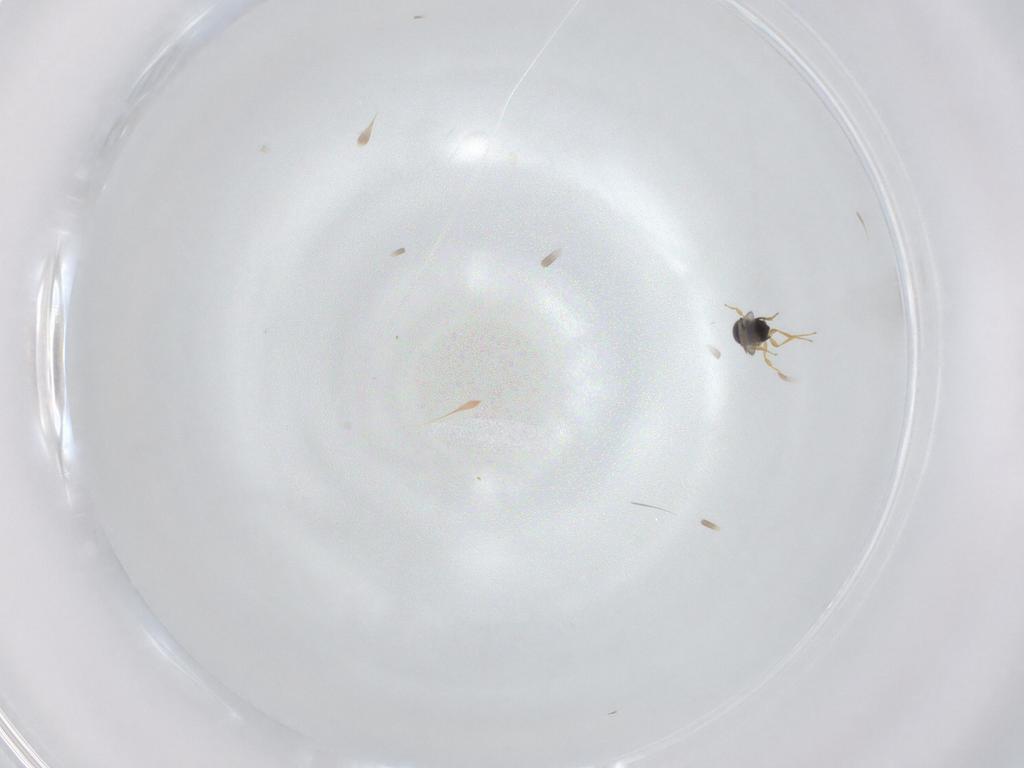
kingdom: Animalia
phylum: Arthropoda
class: Insecta
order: Hymenoptera
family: Scelionidae
